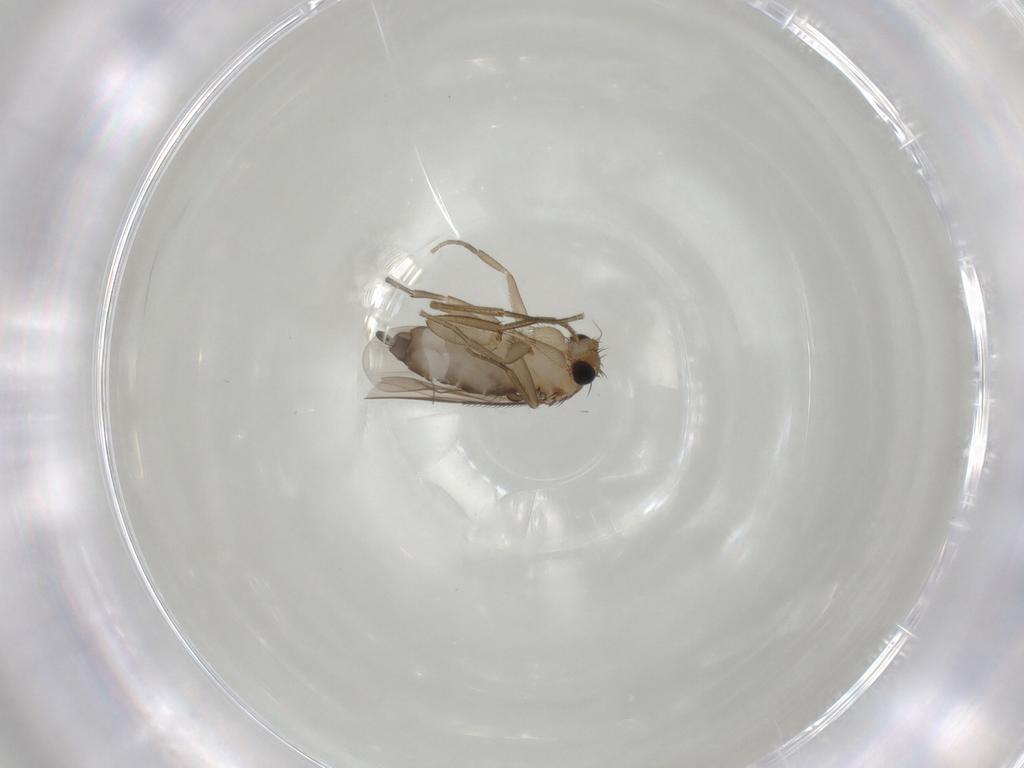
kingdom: Animalia
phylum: Arthropoda
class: Insecta
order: Diptera
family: Phoridae
